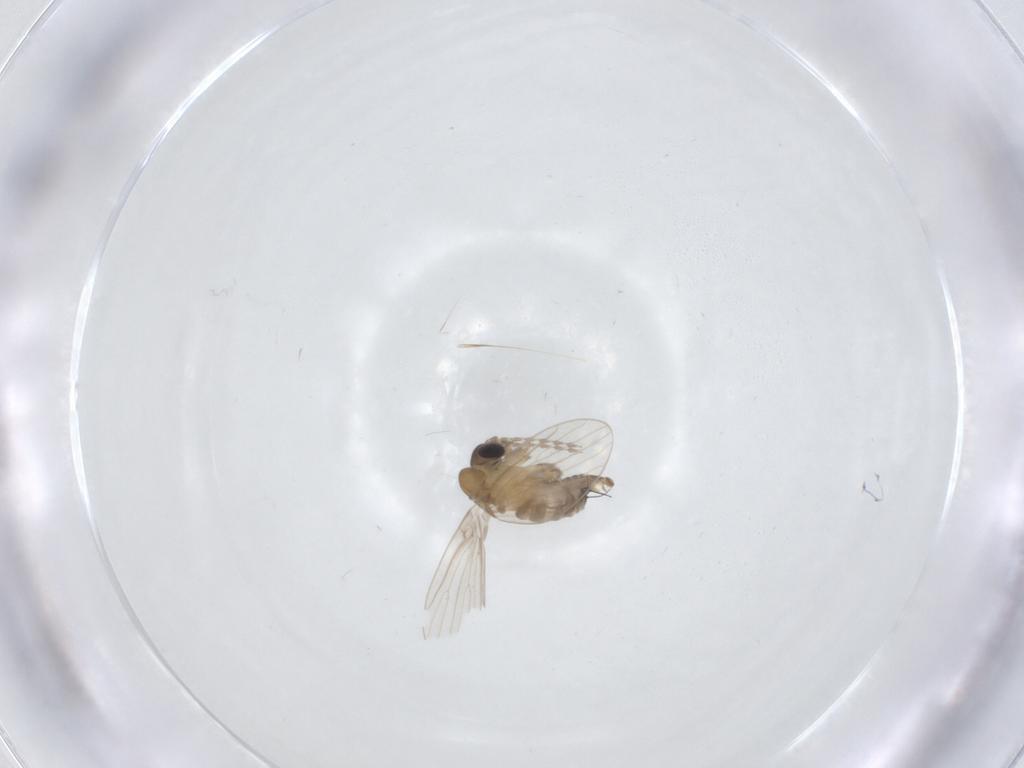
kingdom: Animalia
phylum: Arthropoda
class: Insecta
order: Diptera
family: Psychodidae
